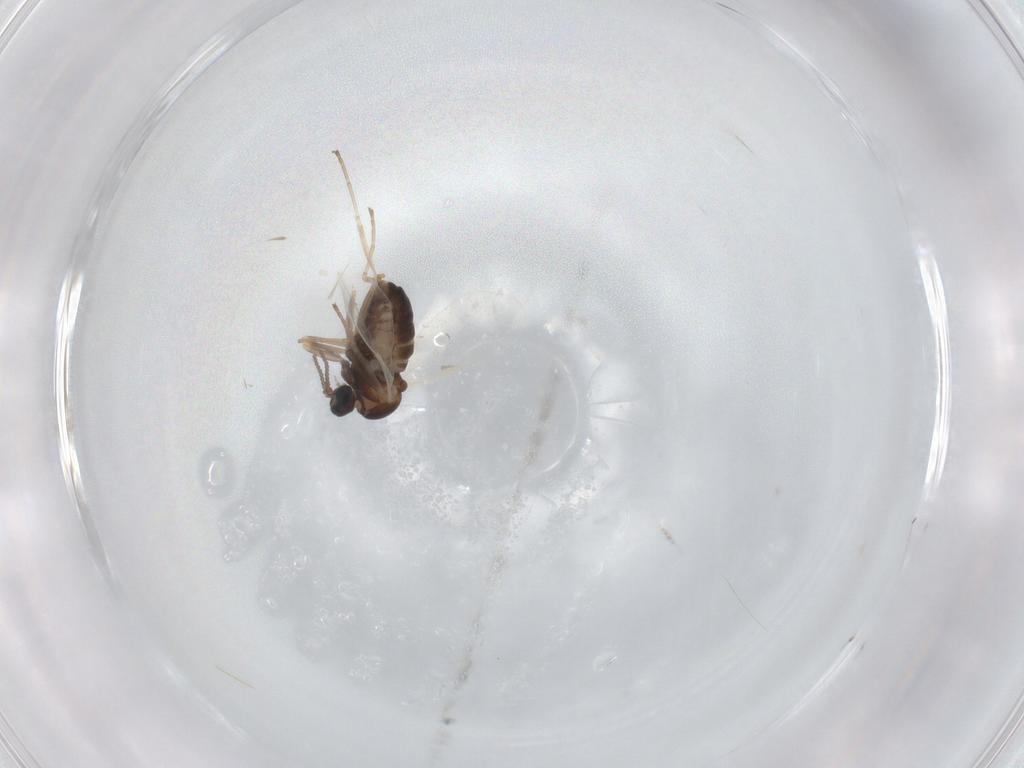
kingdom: Animalia
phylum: Arthropoda
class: Insecta
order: Diptera
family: Cecidomyiidae
